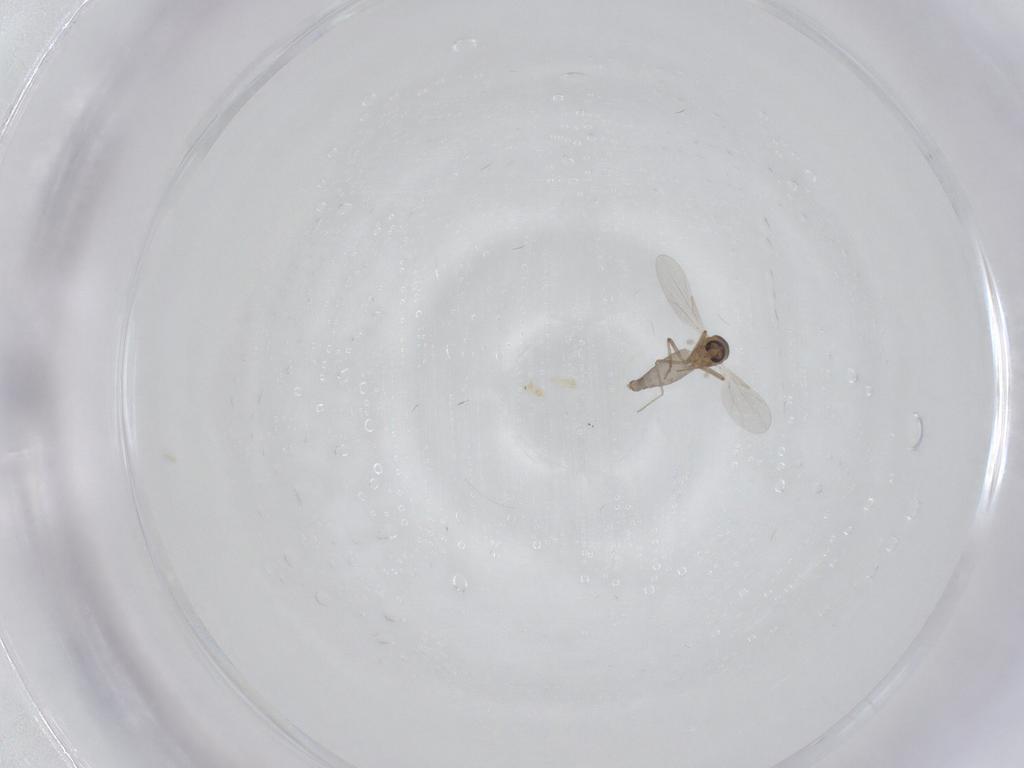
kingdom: Animalia
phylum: Arthropoda
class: Insecta
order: Diptera
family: Ceratopogonidae
